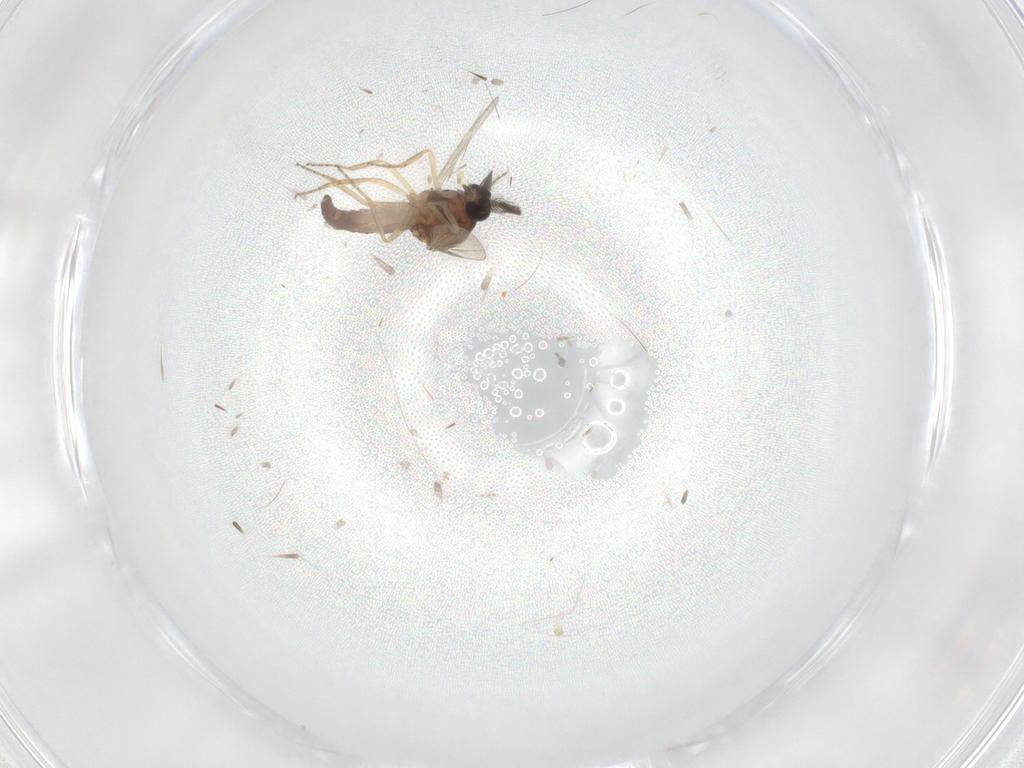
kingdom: Animalia
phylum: Arthropoda
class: Insecta
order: Diptera
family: Ceratopogonidae
